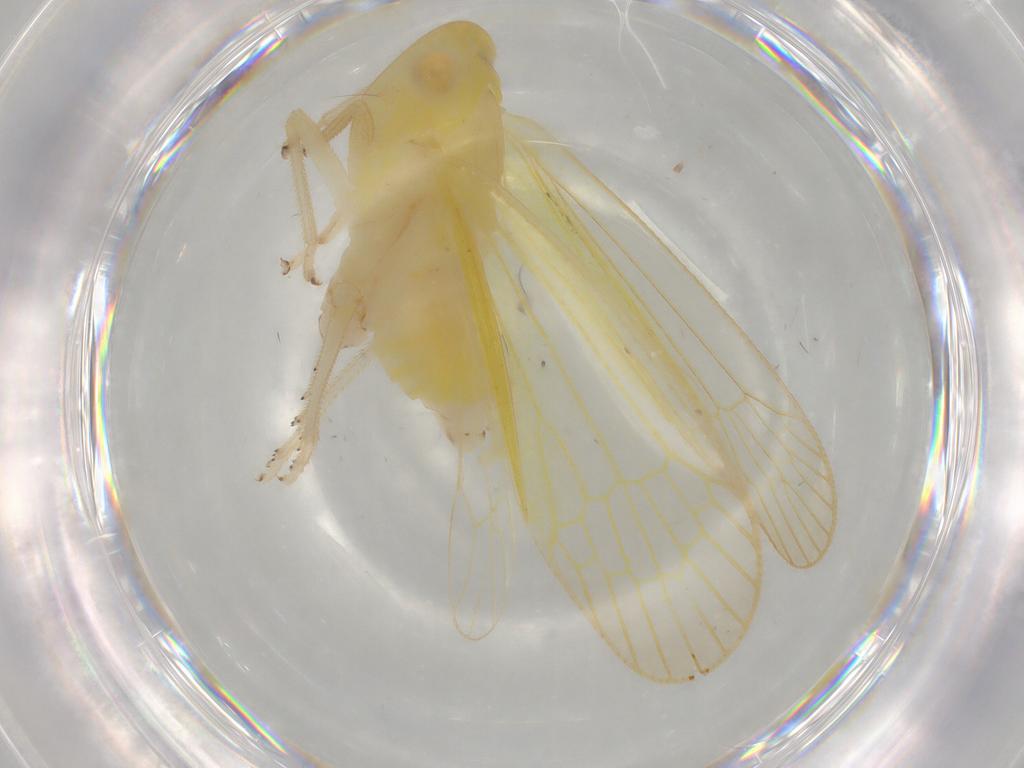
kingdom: Animalia
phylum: Arthropoda
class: Insecta
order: Hemiptera
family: Tropiduchidae
